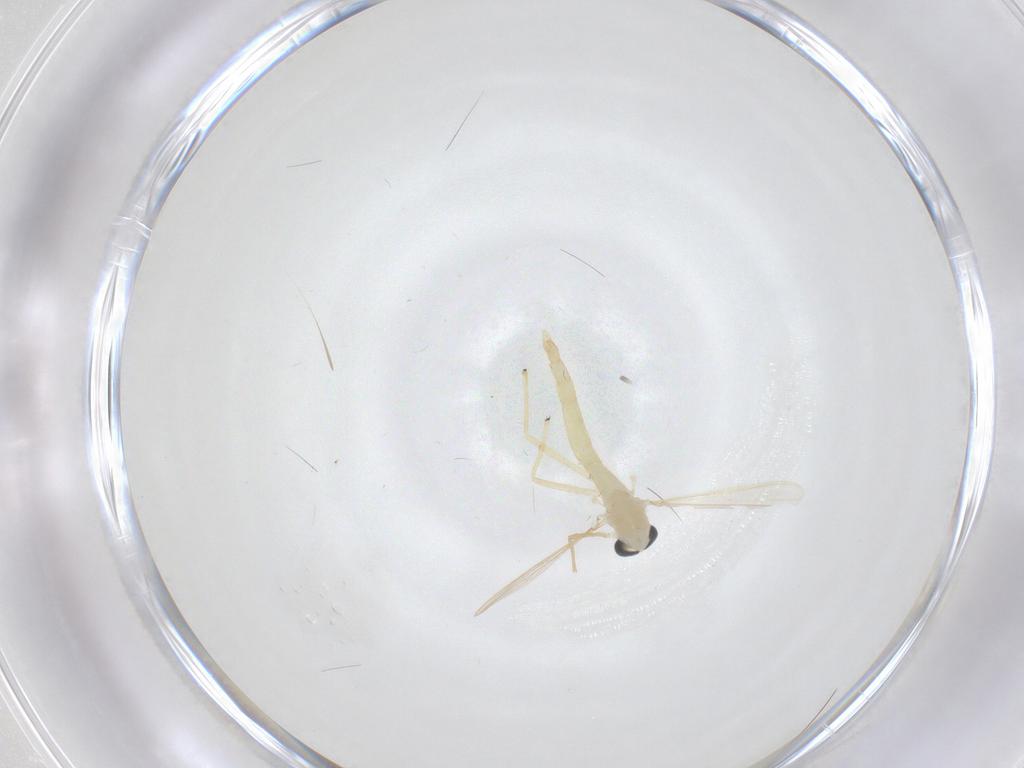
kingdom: Animalia
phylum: Arthropoda
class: Insecta
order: Diptera
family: Chironomidae
